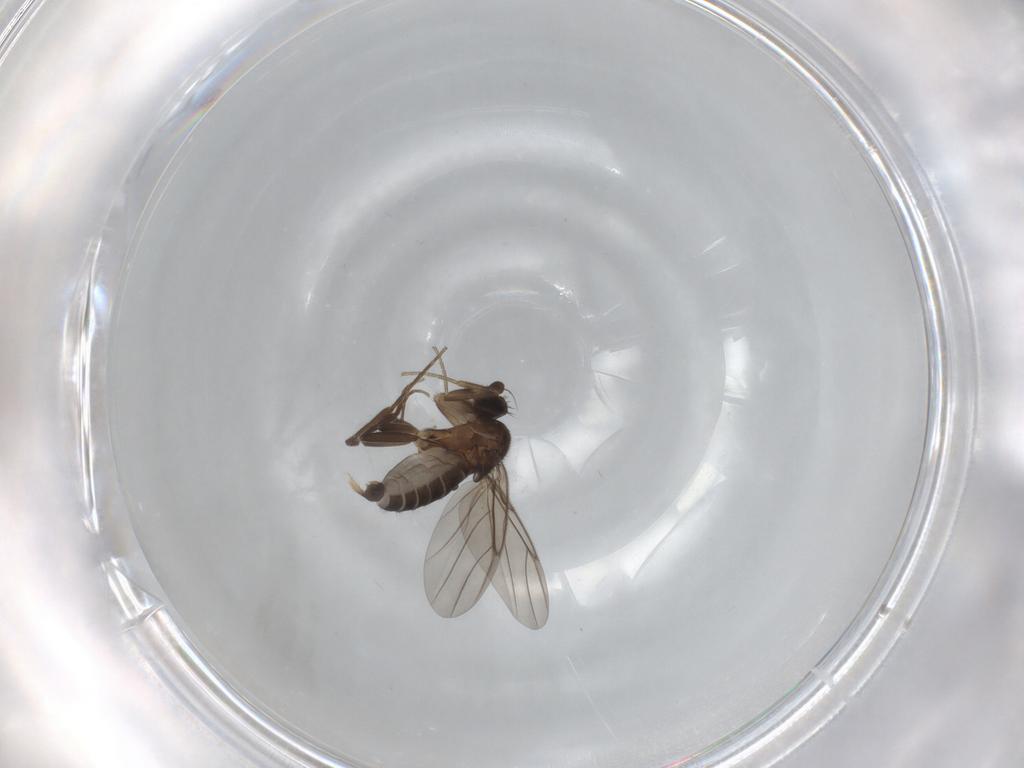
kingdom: Animalia
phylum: Arthropoda
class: Insecta
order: Diptera
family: Phoridae
